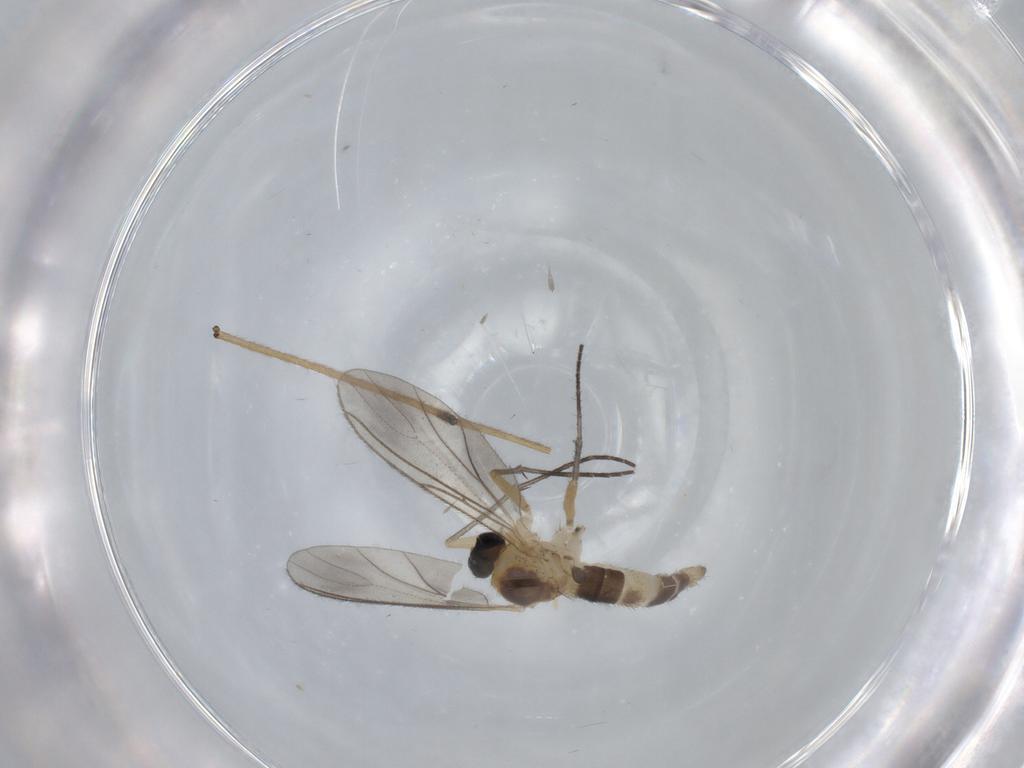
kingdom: Animalia
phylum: Arthropoda
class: Insecta
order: Diptera
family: Sciaridae
